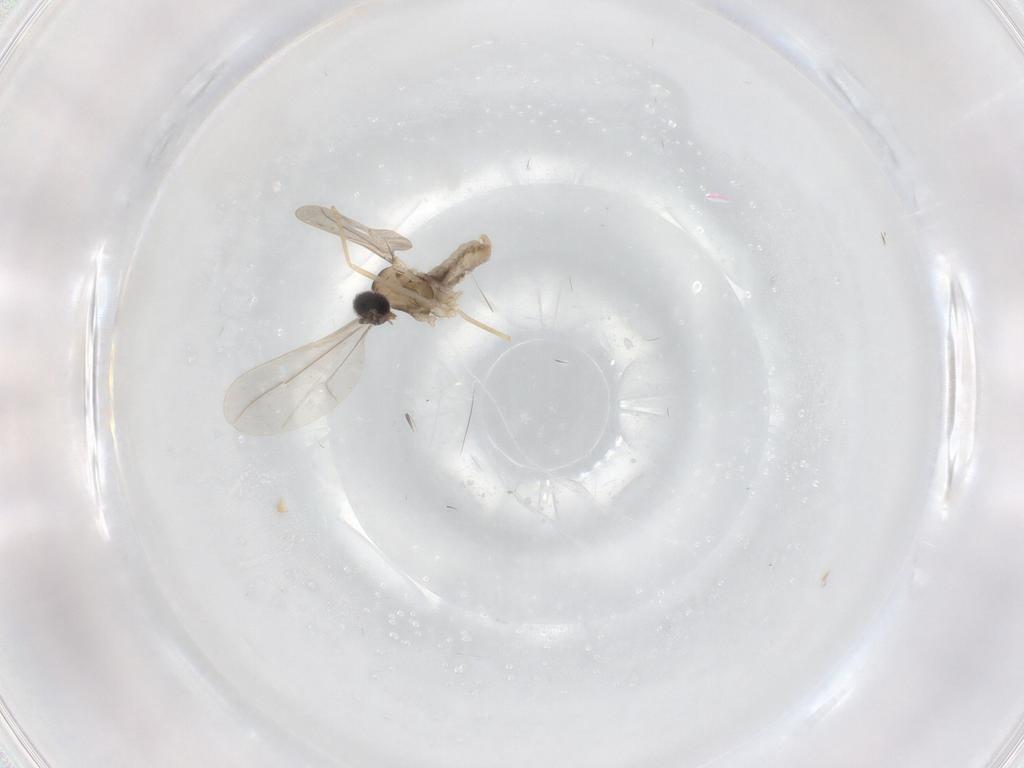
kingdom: Animalia
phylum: Arthropoda
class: Insecta
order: Diptera
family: Cecidomyiidae
